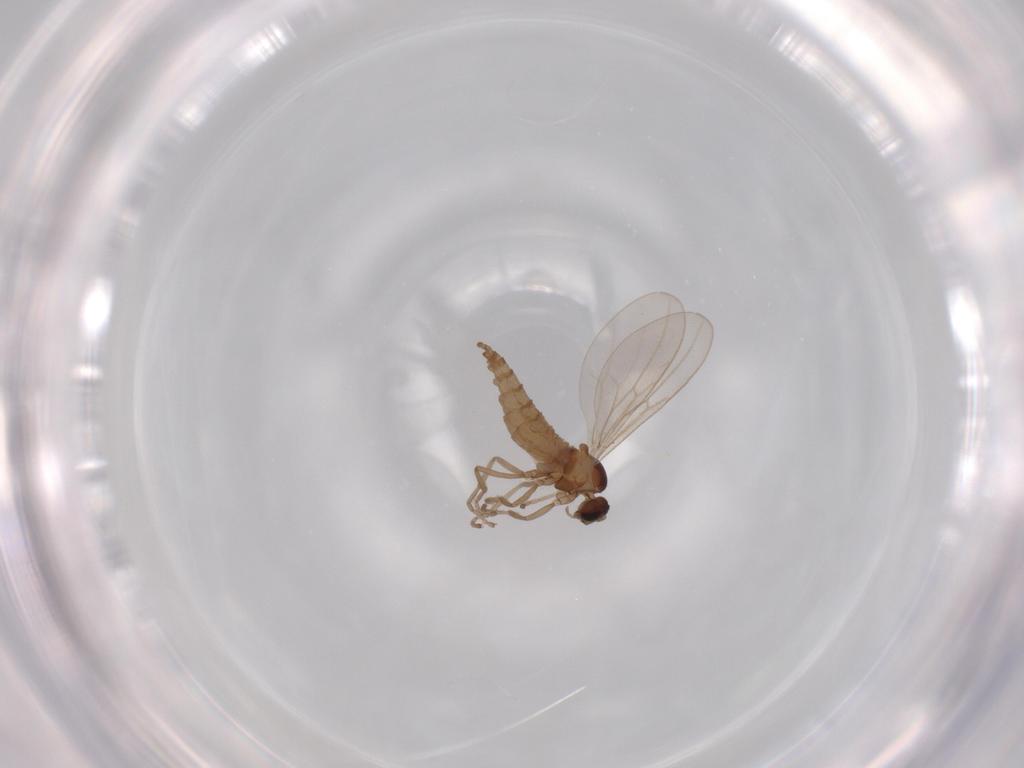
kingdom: Animalia
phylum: Arthropoda
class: Insecta
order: Diptera
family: Cecidomyiidae
